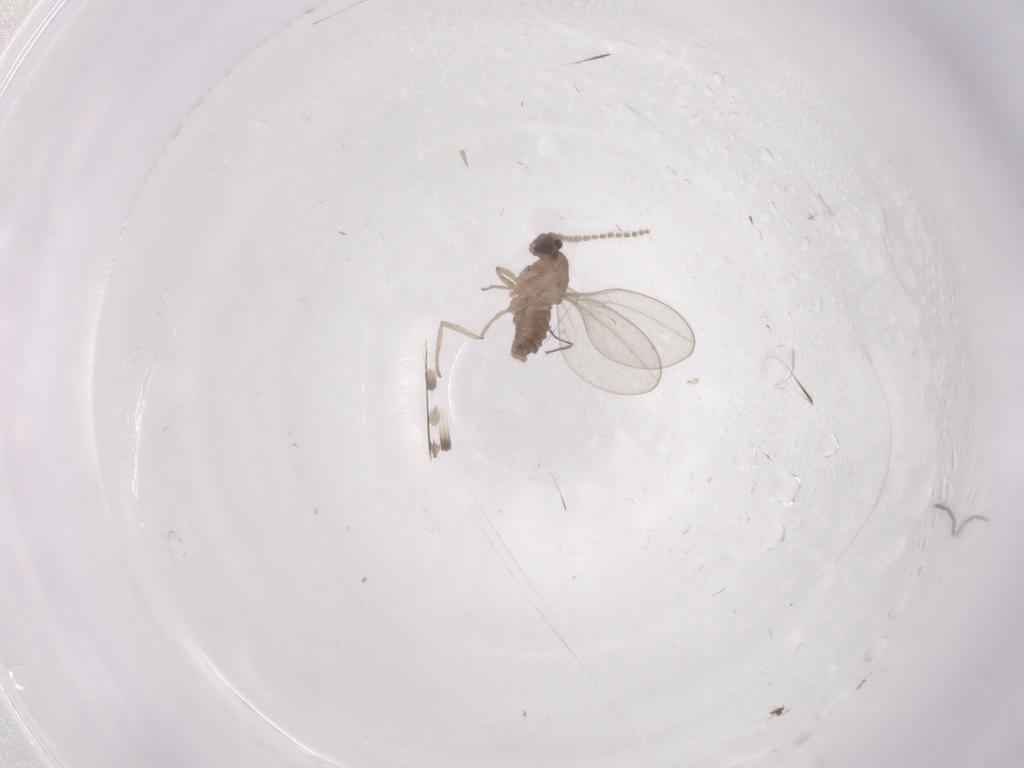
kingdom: Animalia
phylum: Arthropoda
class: Insecta
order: Diptera
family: Cecidomyiidae
